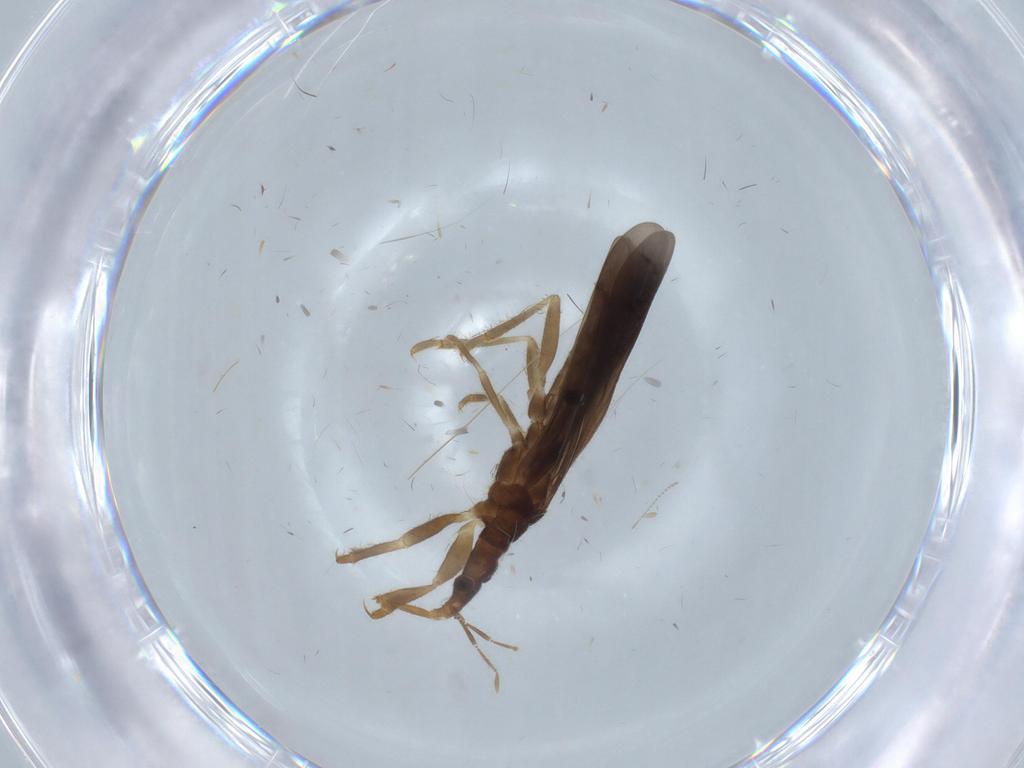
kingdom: Animalia
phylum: Arthropoda
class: Insecta
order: Hemiptera
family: Enicocephalidae
